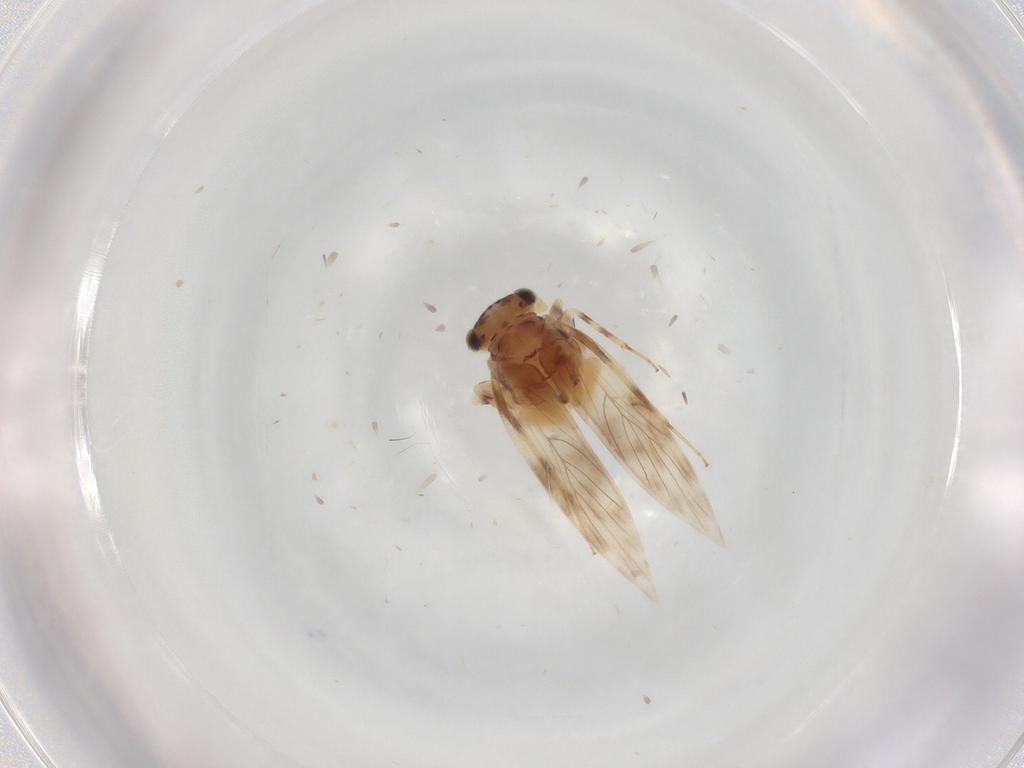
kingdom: Animalia
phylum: Arthropoda
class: Insecta
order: Psocodea
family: Lepidopsocidae
